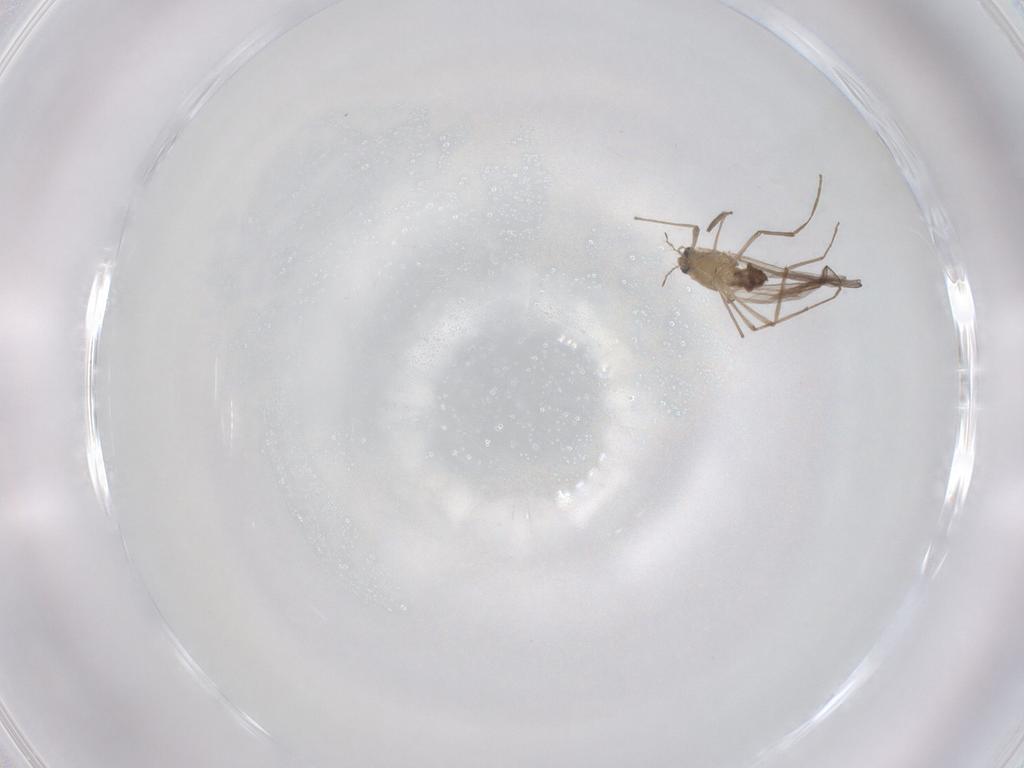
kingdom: Animalia
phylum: Arthropoda
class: Insecta
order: Diptera
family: Chironomidae
